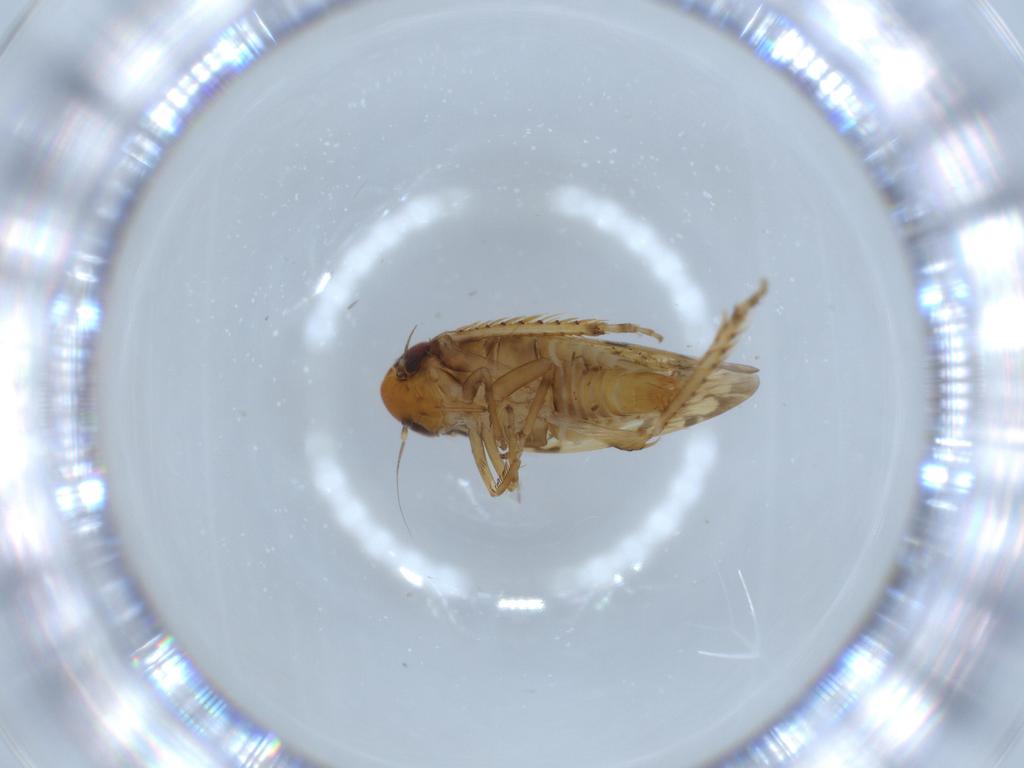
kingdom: Animalia
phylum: Arthropoda
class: Insecta
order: Hemiptera
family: Cicadellidae
